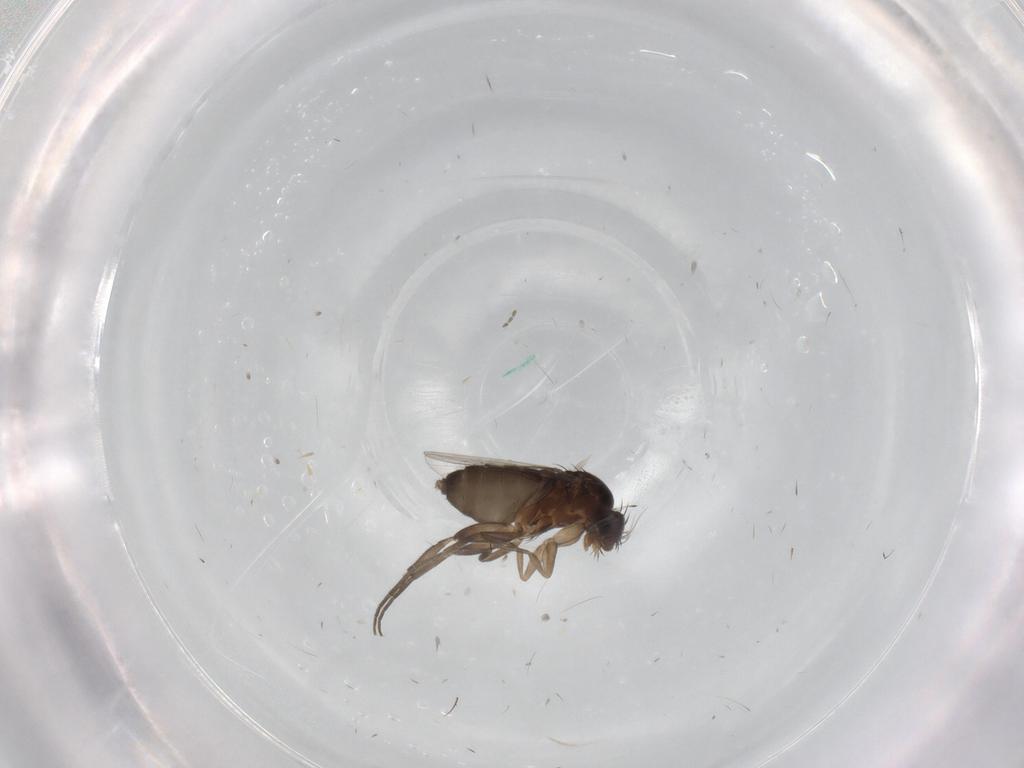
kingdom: Animalia
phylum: Arthropoda
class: Insecta
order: Diptera
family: Phoridae
